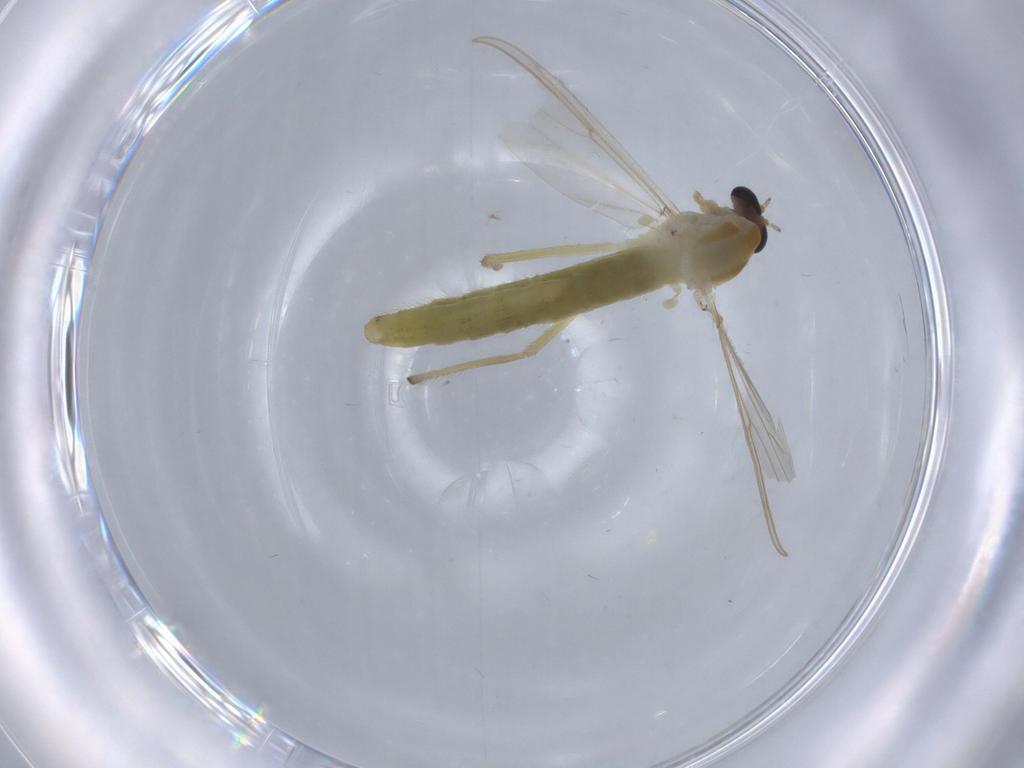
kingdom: Animalia
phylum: Arthropoda
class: Insecta
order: Diptera
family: Chironomidae
